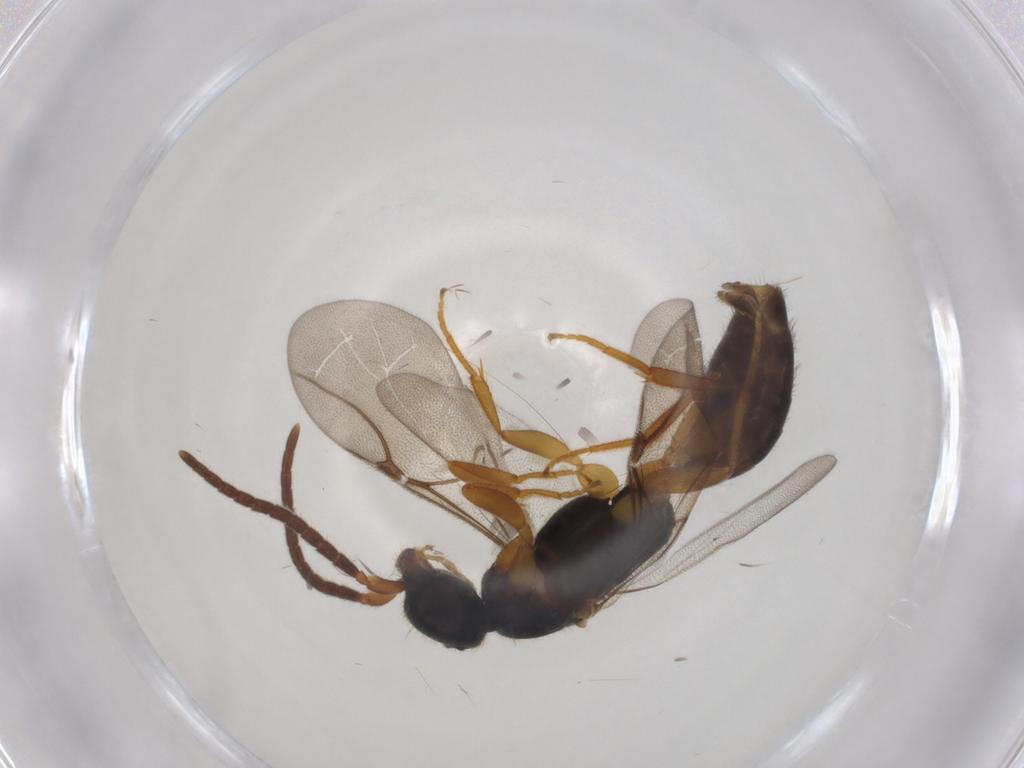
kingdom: Animalia
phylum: Arthropoda
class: Insecta
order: Hymenoptera
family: Bethylidae
